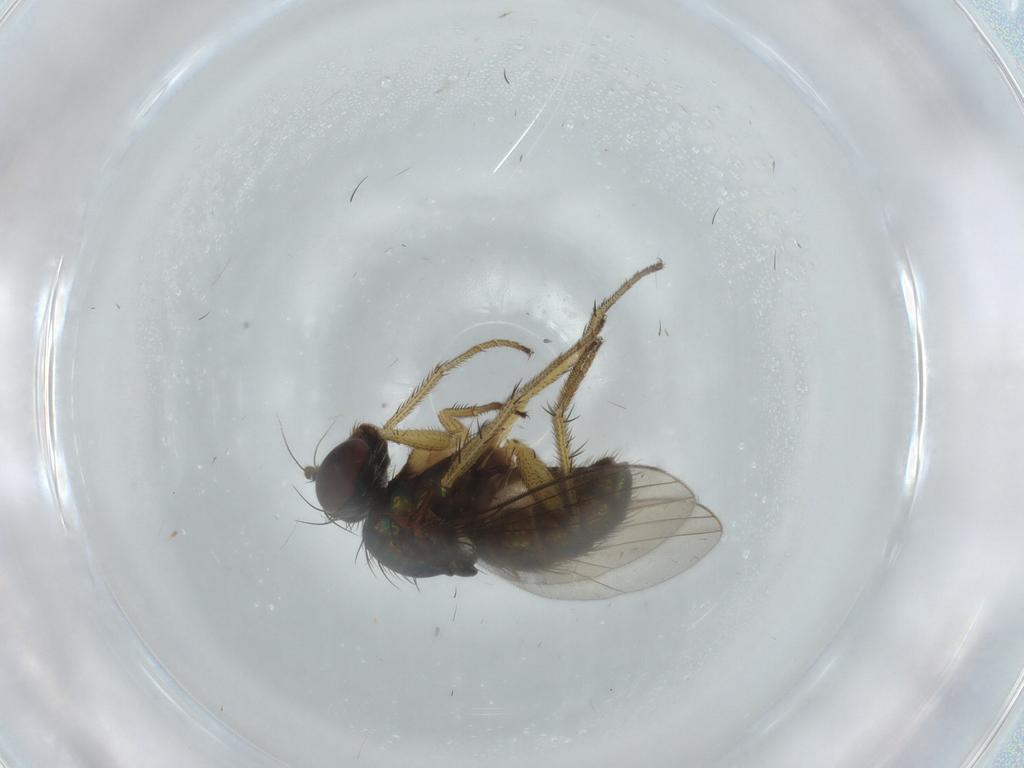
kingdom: Animalia
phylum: Arthropoda
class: Insecta
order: Diptera
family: Dolichopodidae
